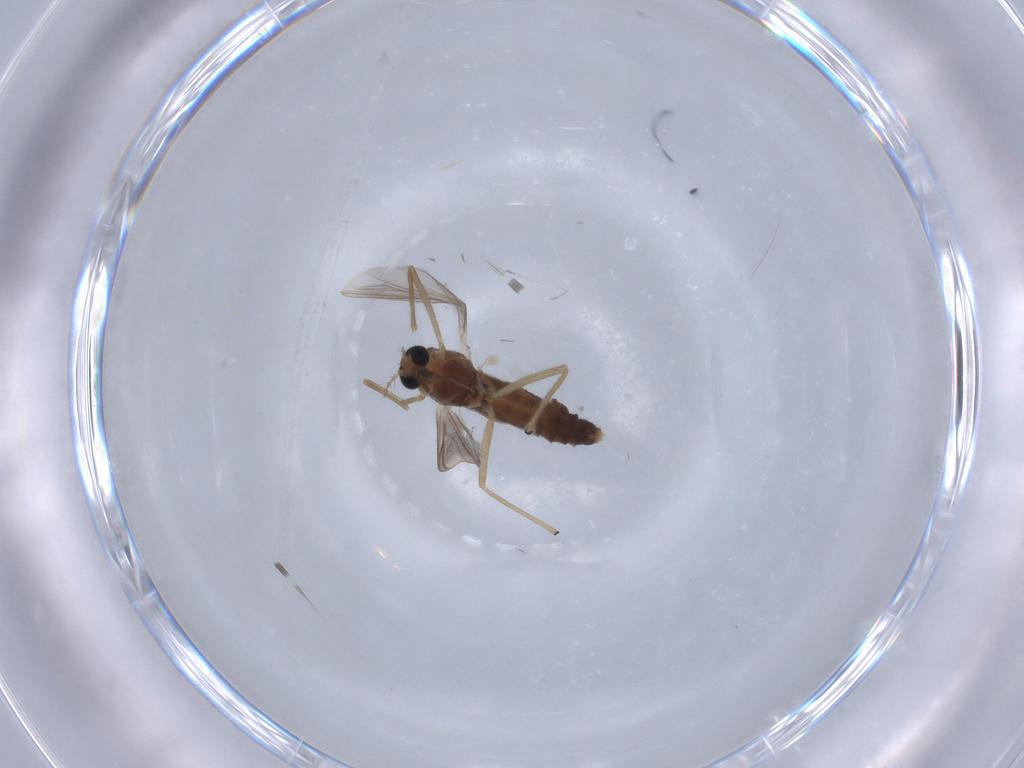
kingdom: Animalia
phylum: Arthropoda
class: Insecta
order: Diptera
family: Chironomidae
